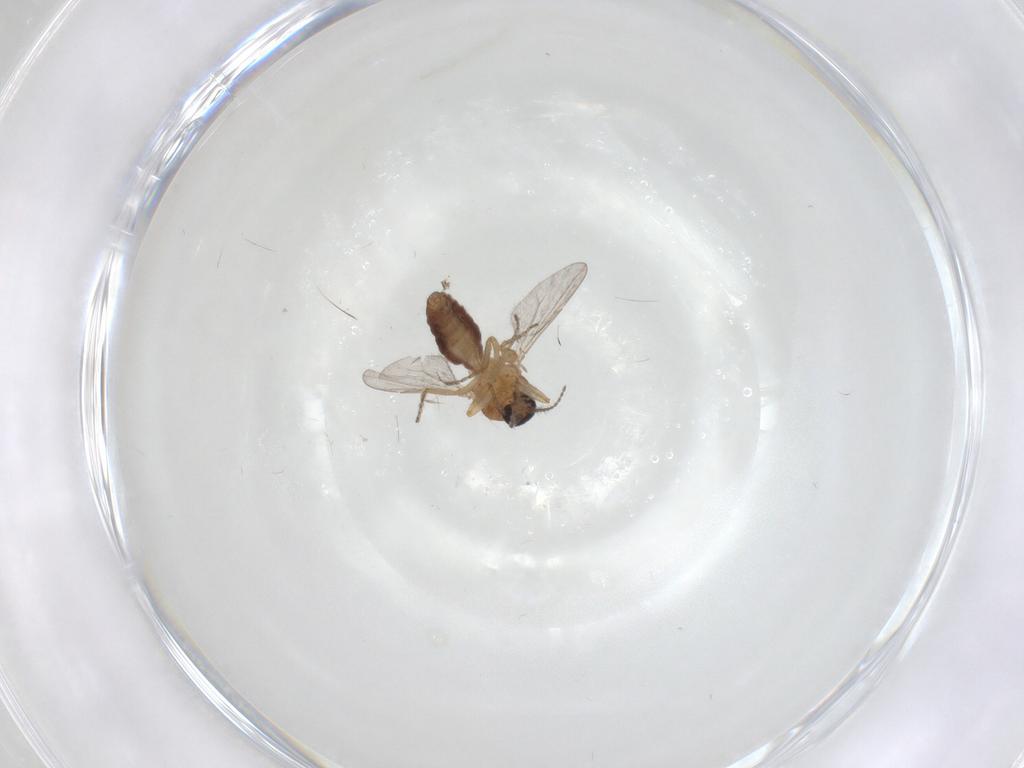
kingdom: Animalia
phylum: Arthropoda
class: Insecta
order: Diptera
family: Ceratopogonidae
